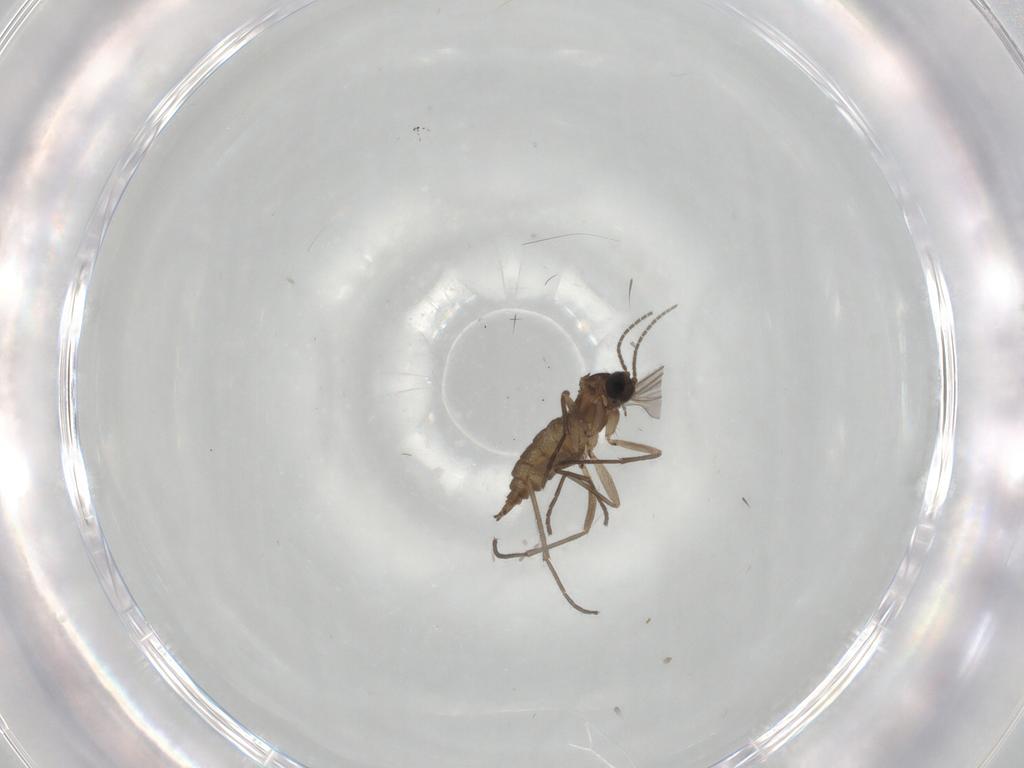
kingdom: Animalia
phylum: Arthropoda
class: Insecta
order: Diptera
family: Sciaridae
